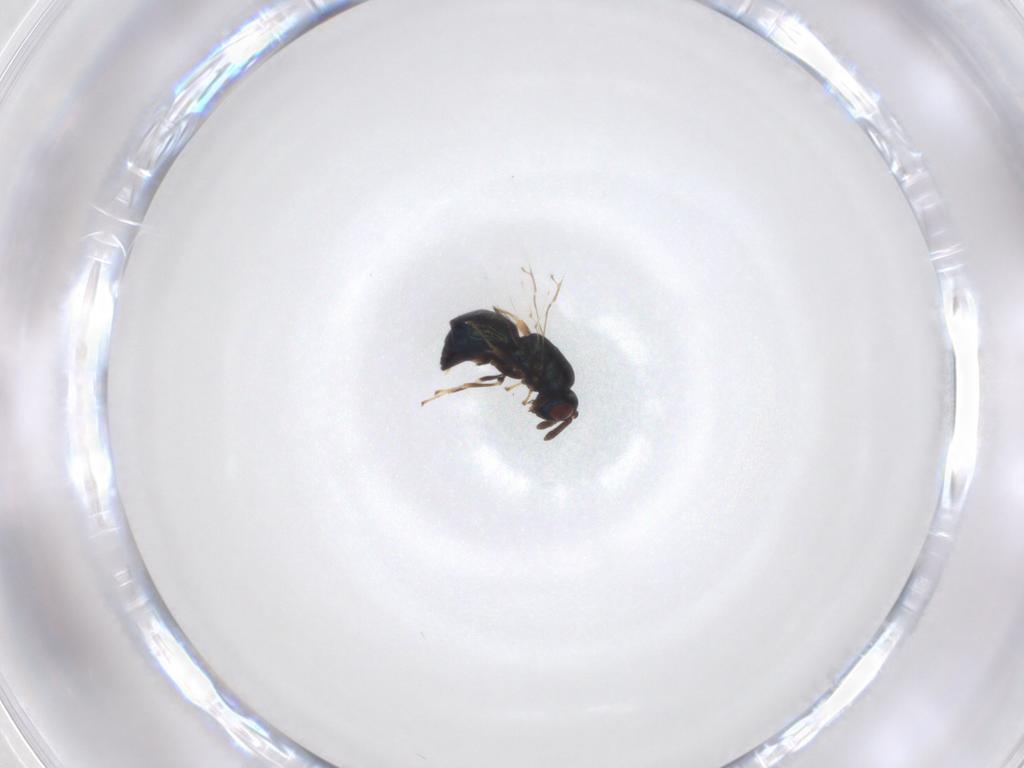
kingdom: Animalia
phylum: Arthropoda
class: Insecta
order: Hymenoptera
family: Pteromalidae
